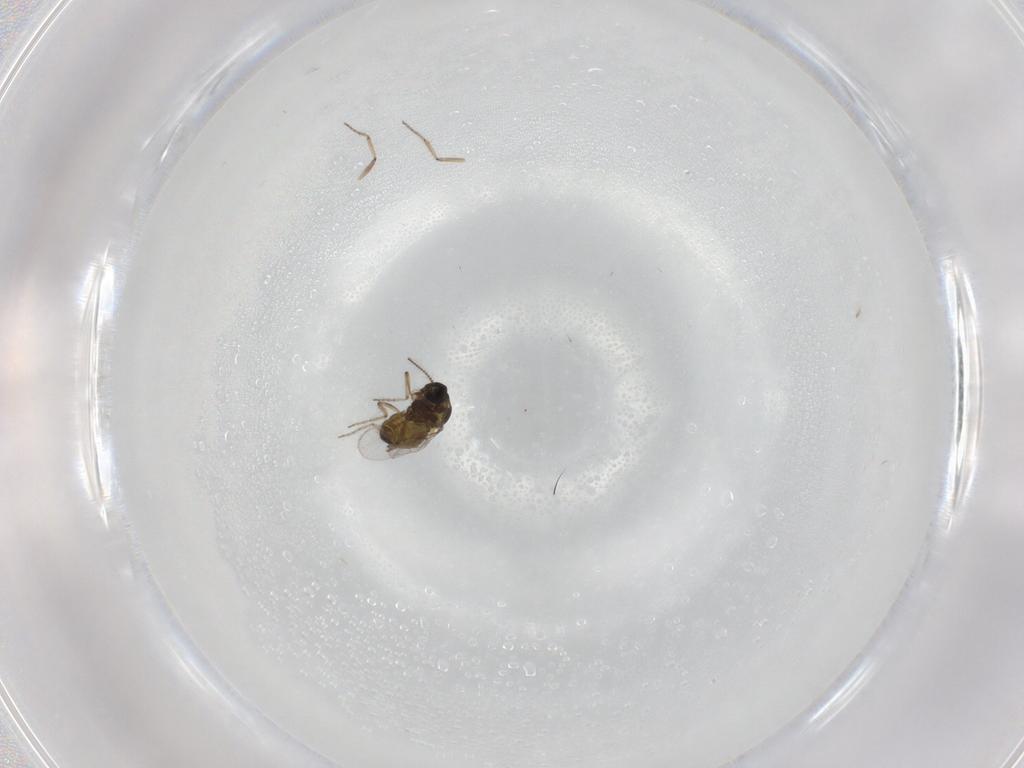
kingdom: Animalia
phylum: Arthropoda
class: Insecta
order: Diptera
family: Ceratopogonidae
